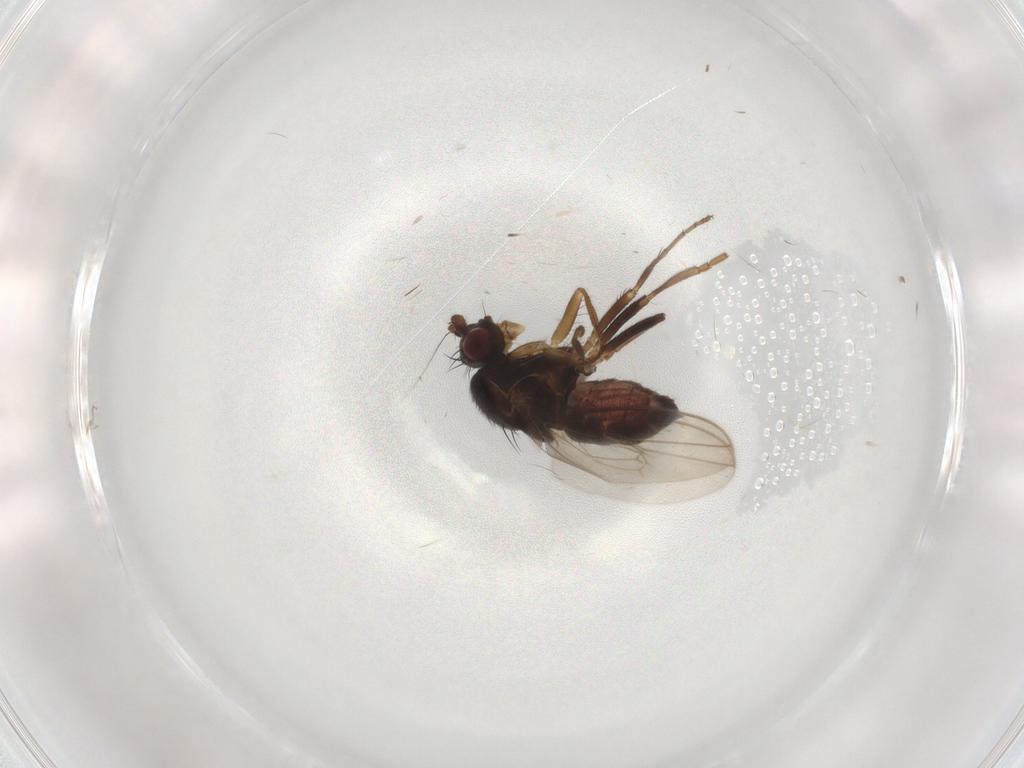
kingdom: Animalia
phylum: Arthropoda
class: Insecta
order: Diptera
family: Sphaeroceridae
